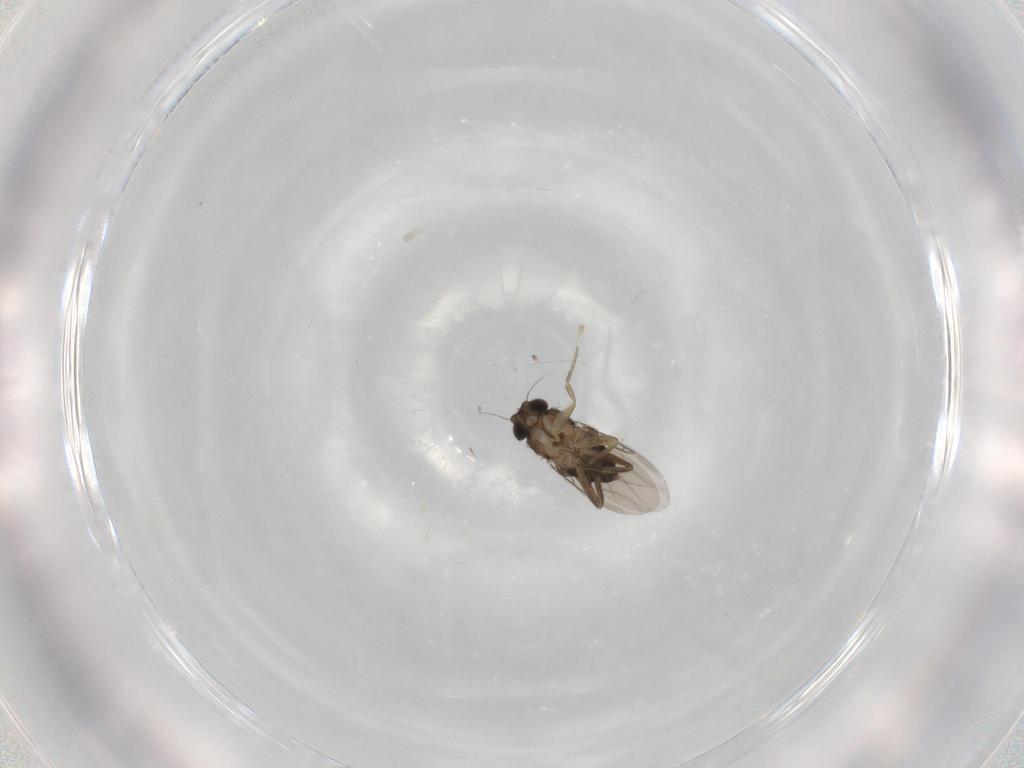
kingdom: Animalia
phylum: Arthropoda
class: Insecta
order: Diptera
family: Phoridae
